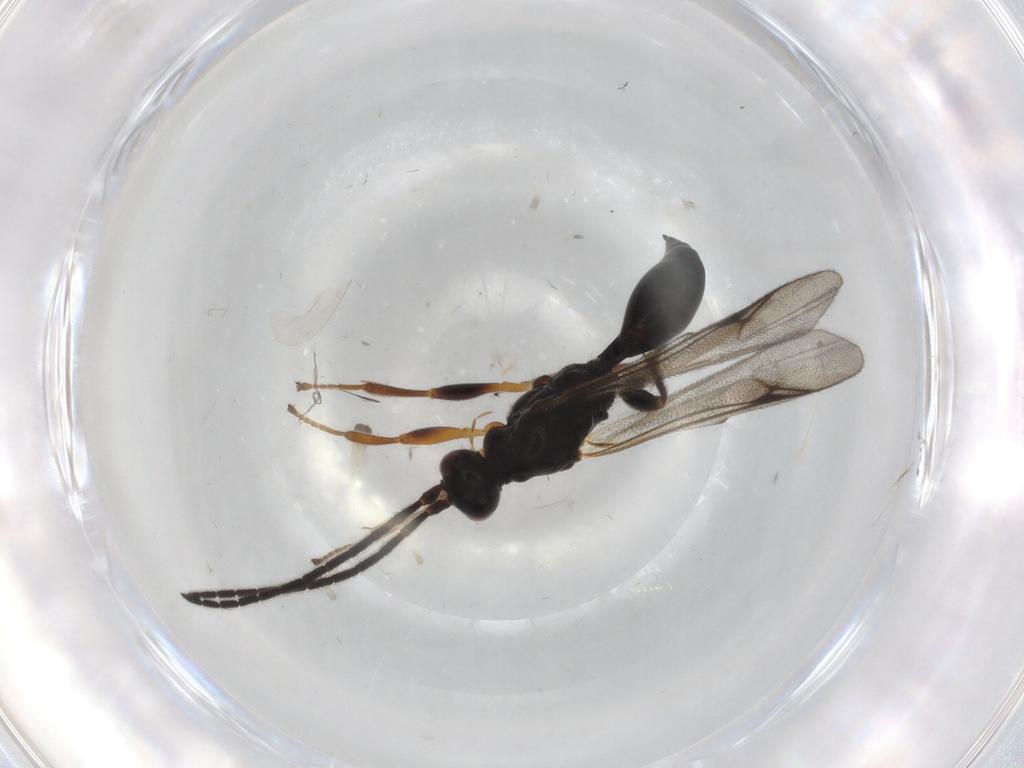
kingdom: Animalia
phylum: Arthropoda
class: Insecta
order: Hymenoptera
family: Proctotrupidae
